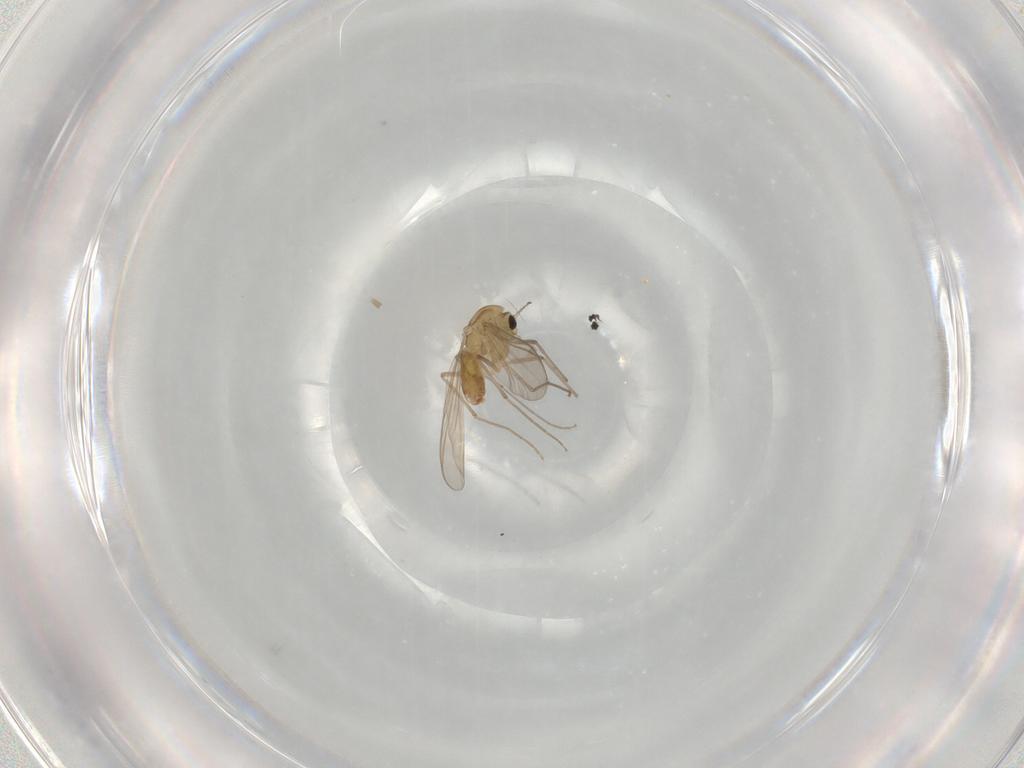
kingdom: Animalia
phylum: Arthropoda
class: Insecta
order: Diptera
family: Chironomidae
